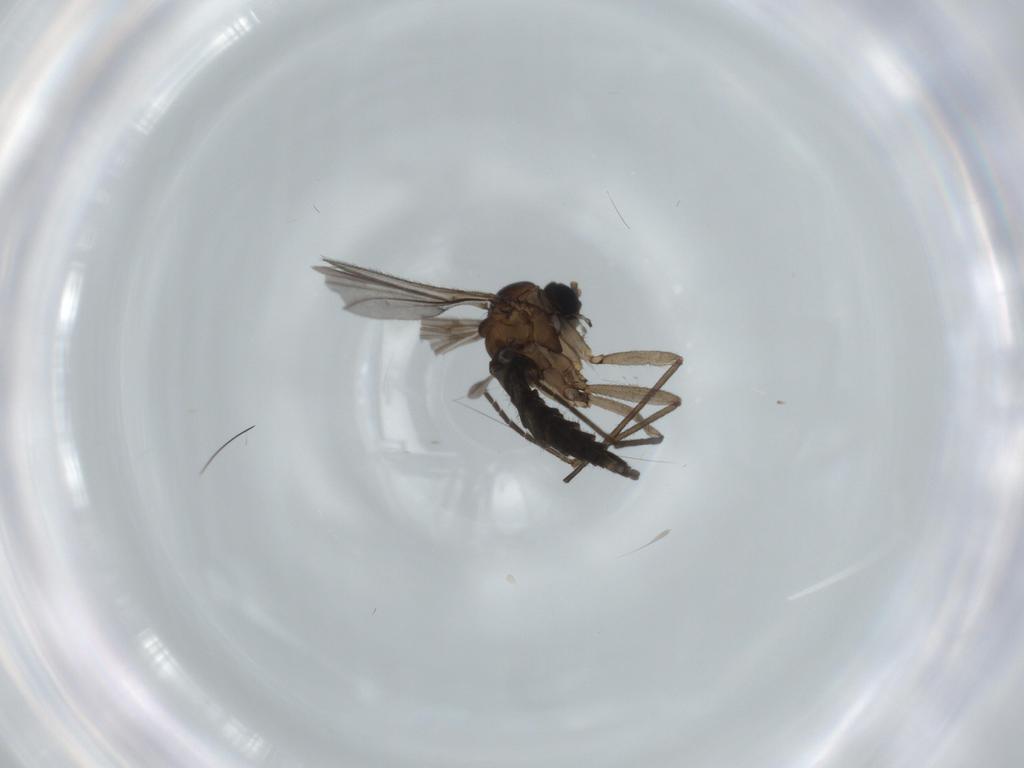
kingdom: Animalia
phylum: Arthropoda
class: Insecta
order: Diptera
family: Sciaridae
